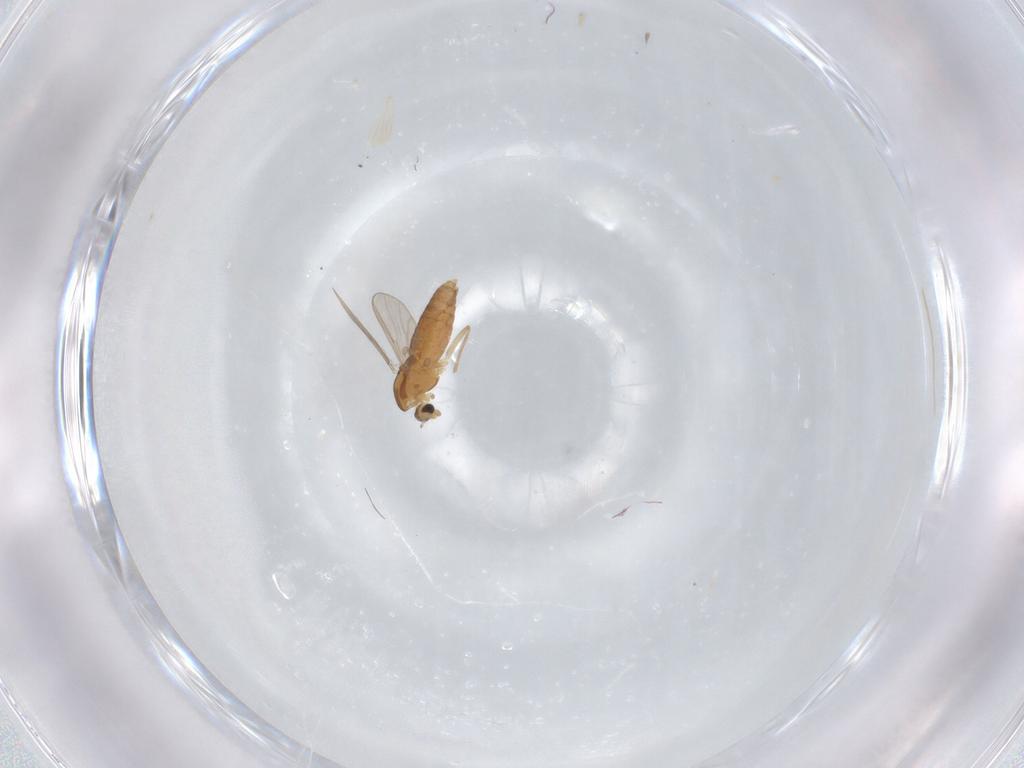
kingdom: Animalia
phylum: Arthropoda
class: Insecta
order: Diptera
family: Chironomidae
